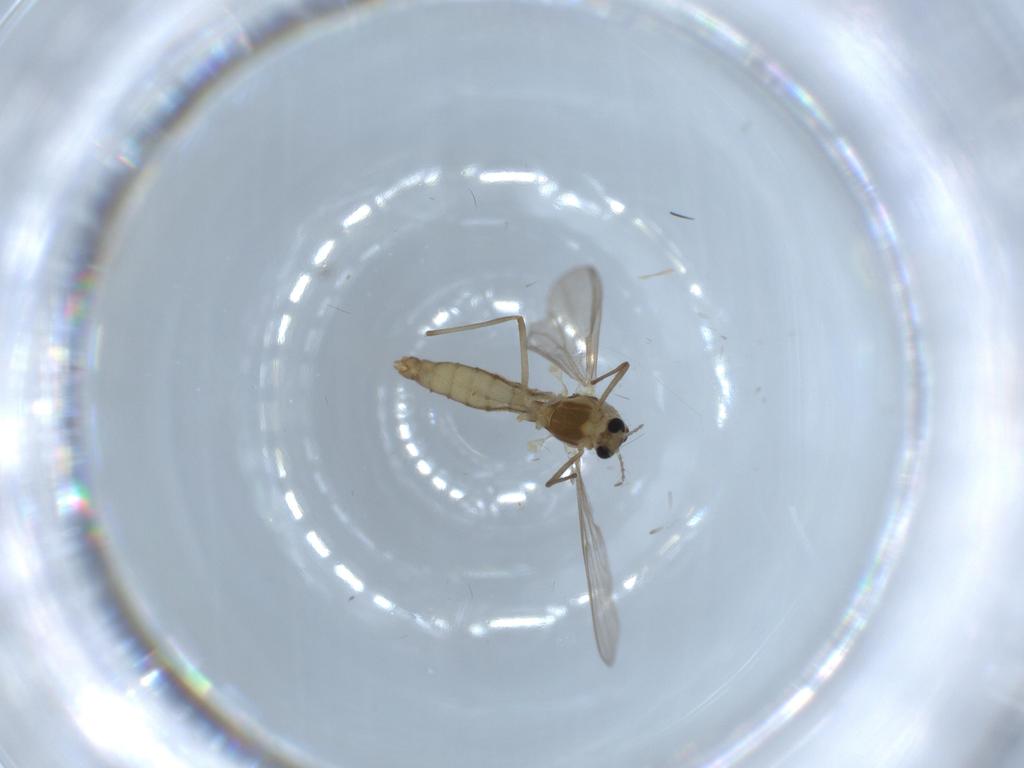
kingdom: Animalia
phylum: Arthropoda
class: Insecta
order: Diptera
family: Chironomidae
